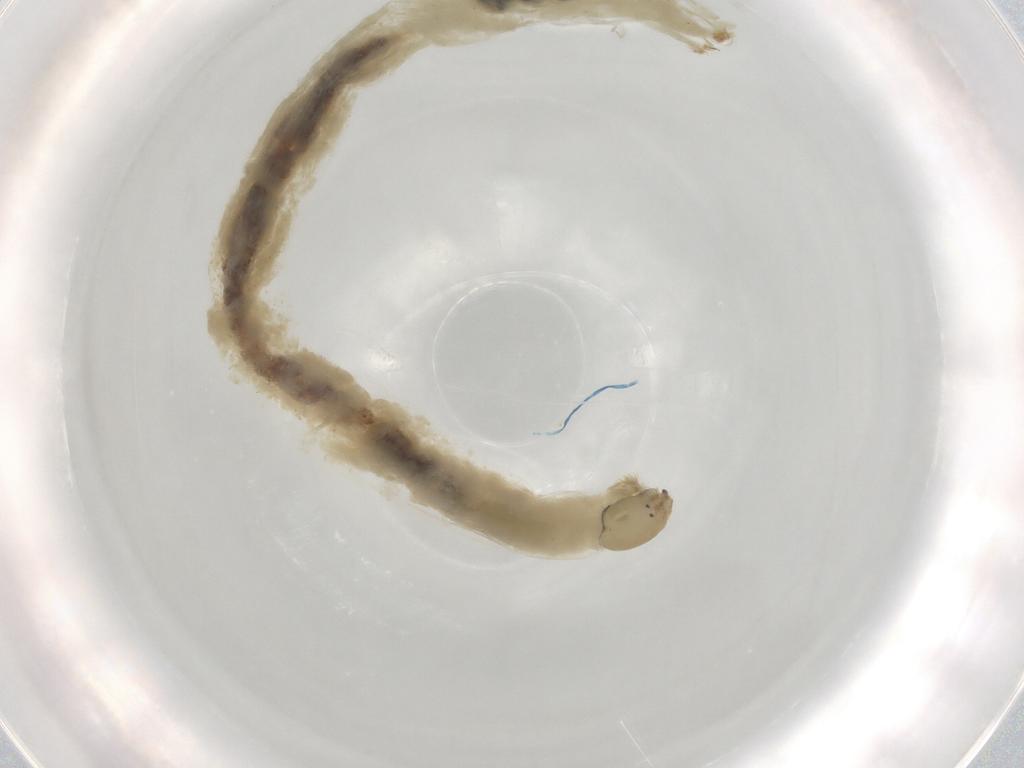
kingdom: Animalia
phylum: Arthropoda
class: Insecta
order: Diptera
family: Chironomidae
